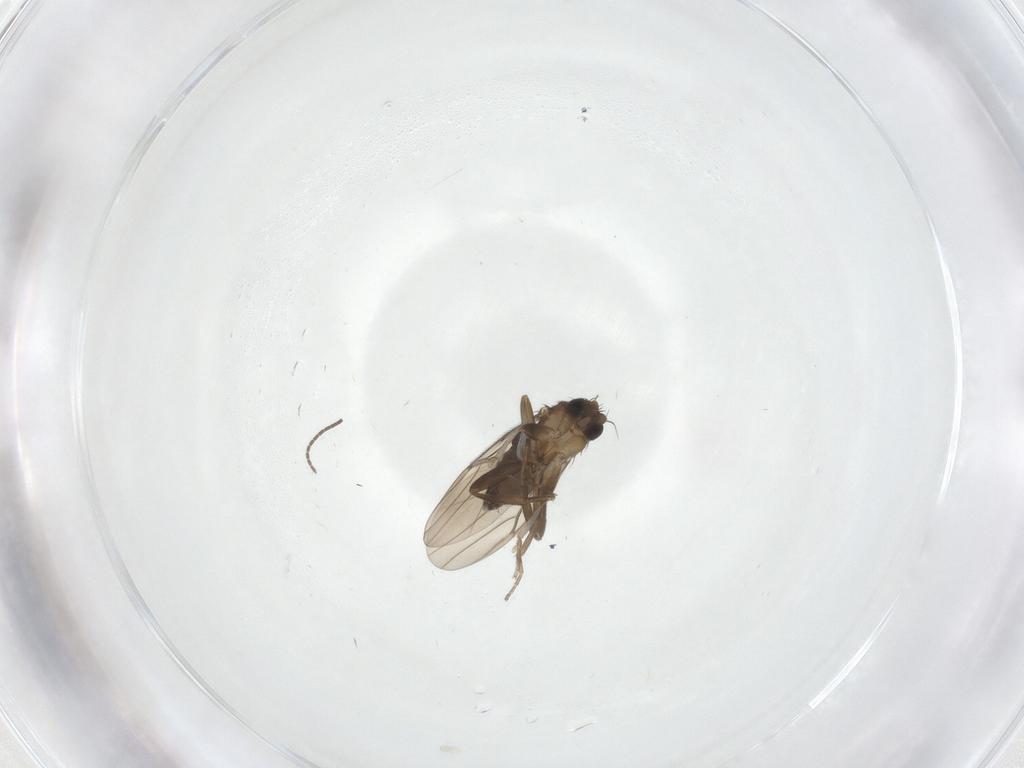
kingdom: Animalia
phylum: Arthropoda
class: Insecta
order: Diptera
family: Sciaridae
